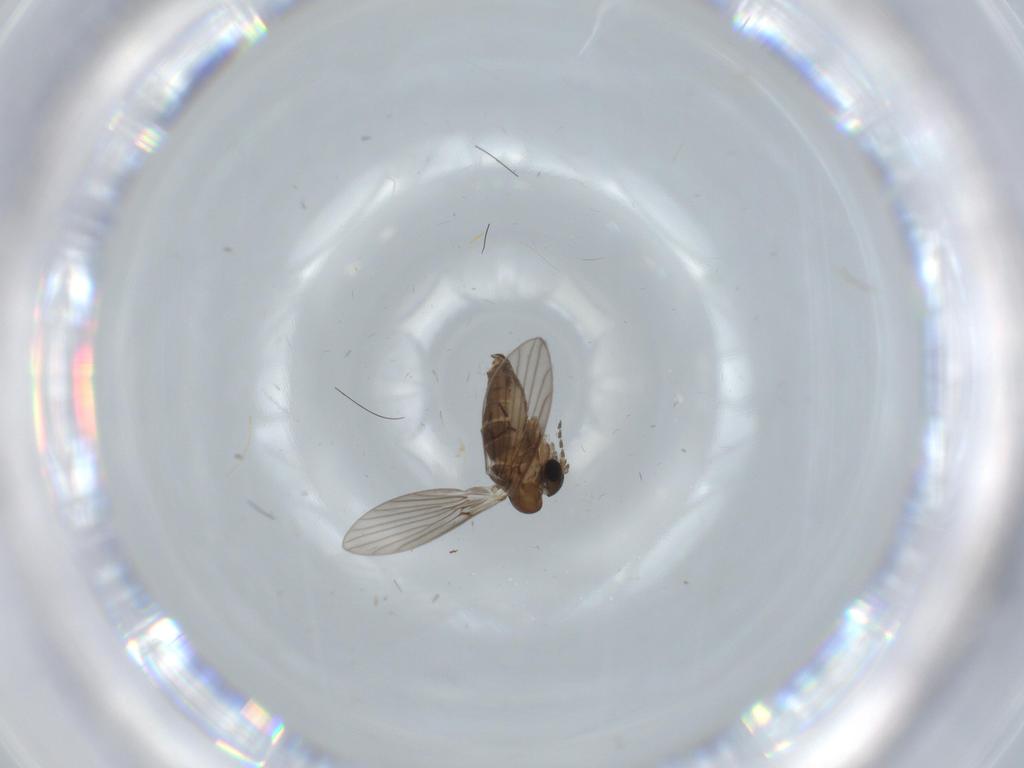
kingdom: Animalia
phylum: Arthropoda
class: Insecta
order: Diptera
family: Psychodidae
